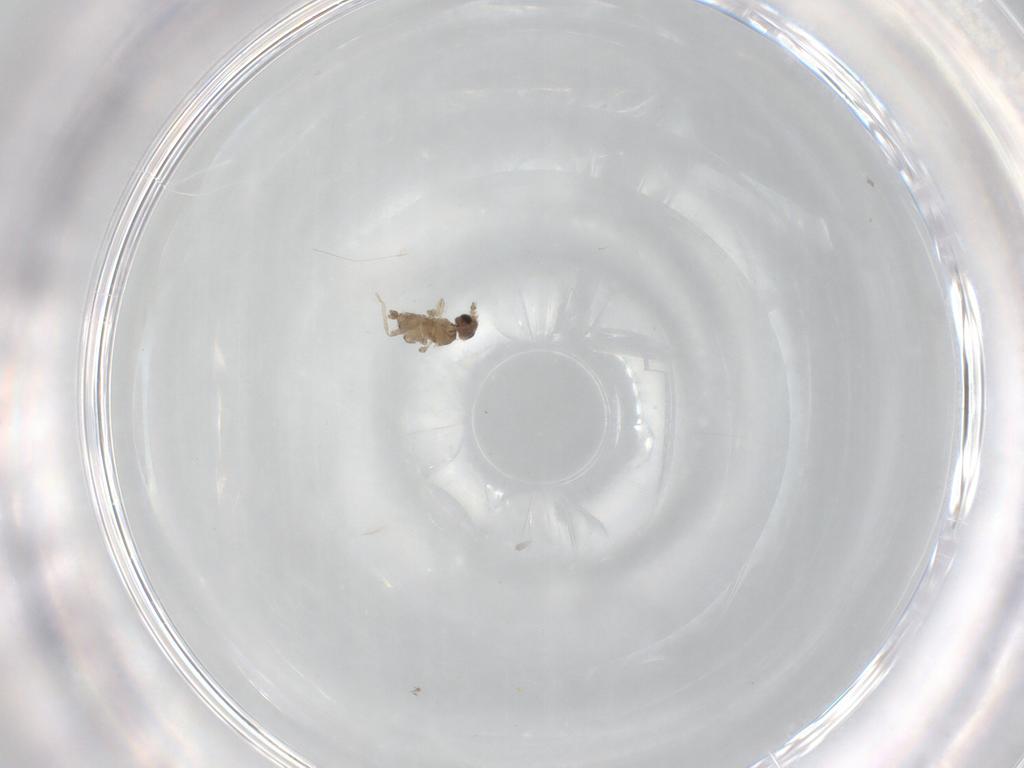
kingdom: Animalia
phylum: Arthropoda
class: Insecta
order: Diptera
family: Cecidomyiidae
